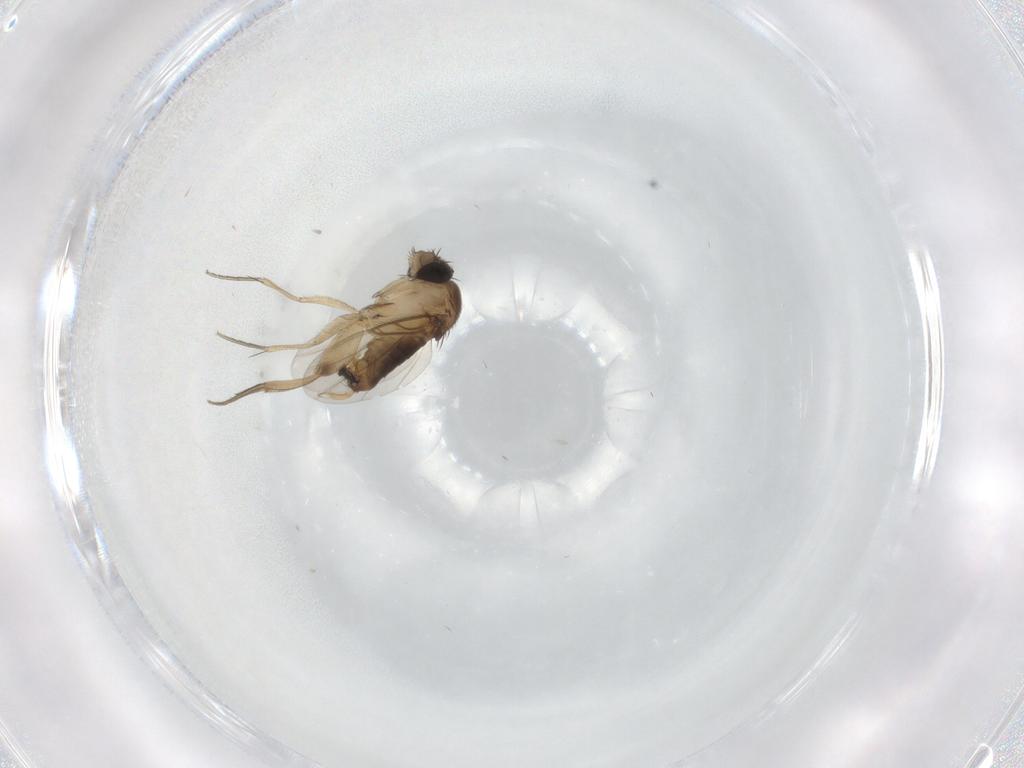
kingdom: Animalia
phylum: Arthropoda
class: Insecta
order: Diptera
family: Phoridae
